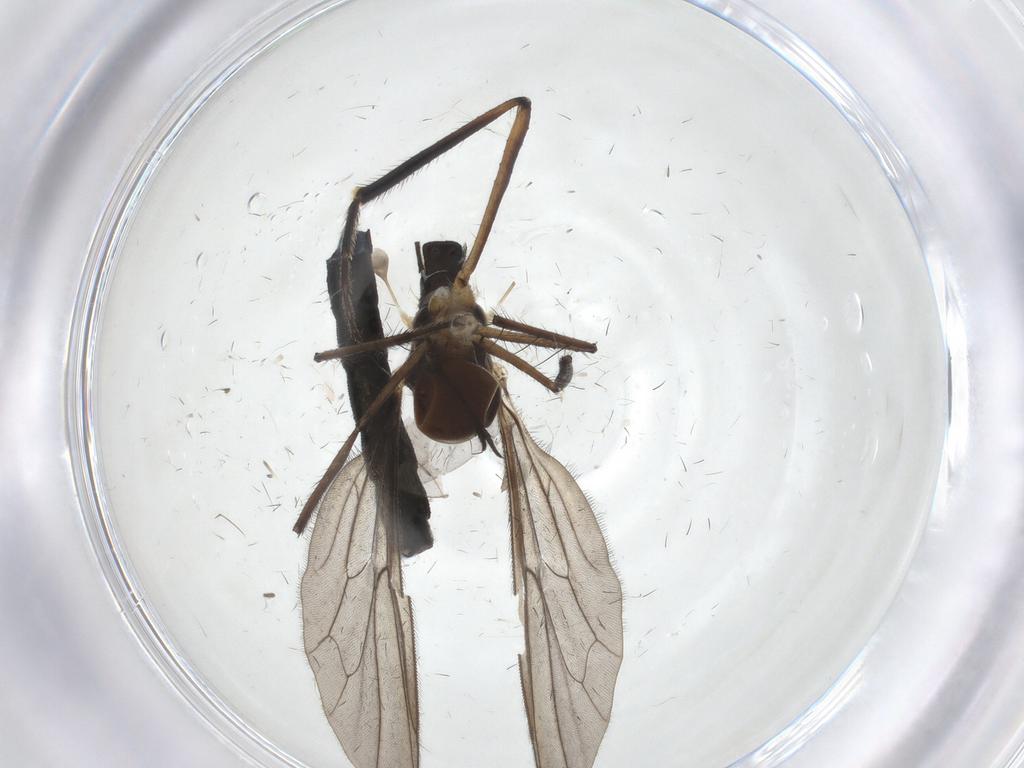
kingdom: Animalia
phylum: Arthropoda
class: Insecta
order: Diptera
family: Hybotidae
